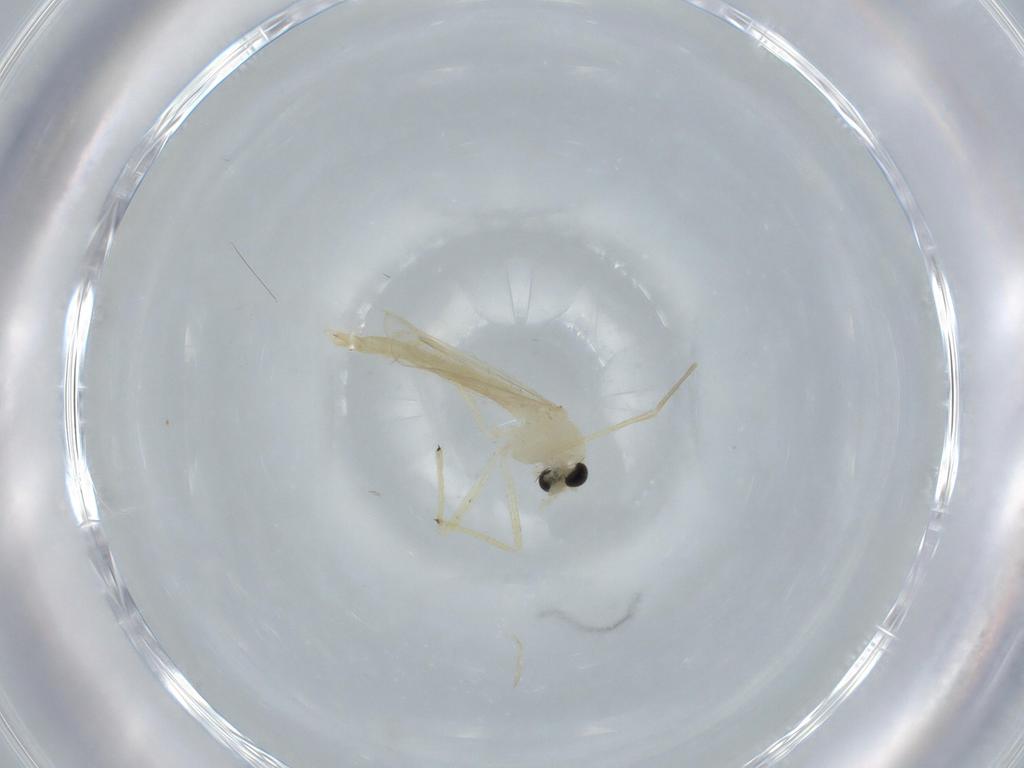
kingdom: Animalia
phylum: Arthropoda
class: Insecta
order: Diptera
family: Chironomidae
